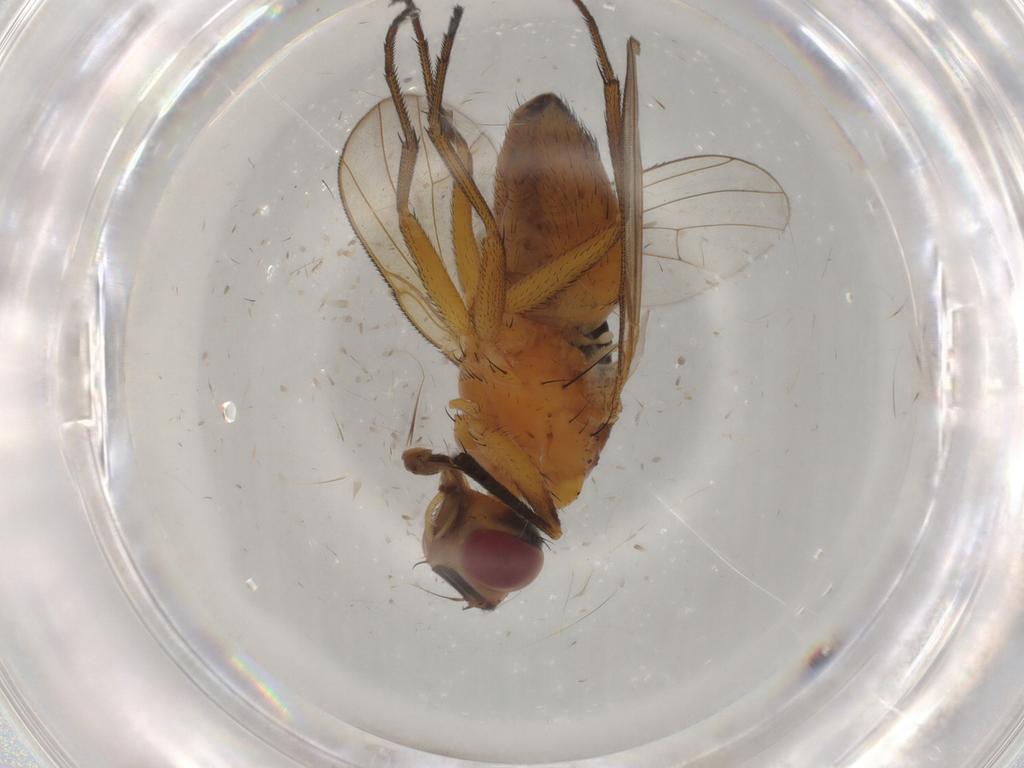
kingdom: Animalia
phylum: Arthropoda
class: Insecta
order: Diptera
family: Muscidae
